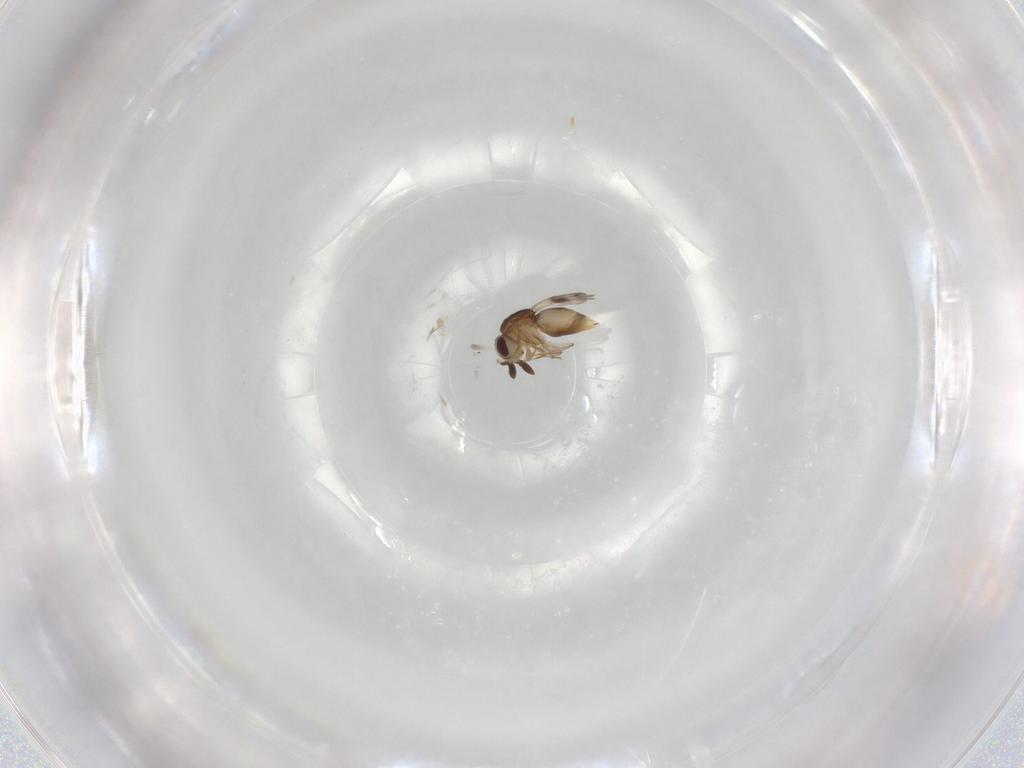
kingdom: Animalia
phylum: Arthropoda
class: Insecta
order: Hymenoptera
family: Ceraphronidae
